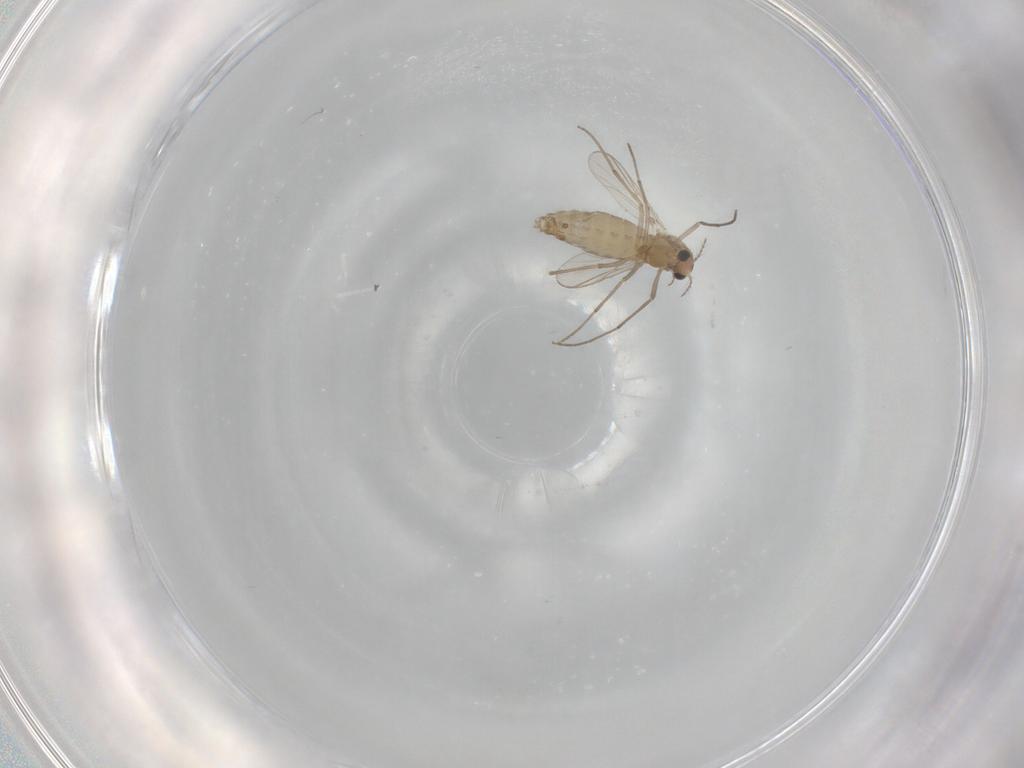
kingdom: Animalia
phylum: Arthropoda
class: Insecta
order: Diptera
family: Chironomidae
